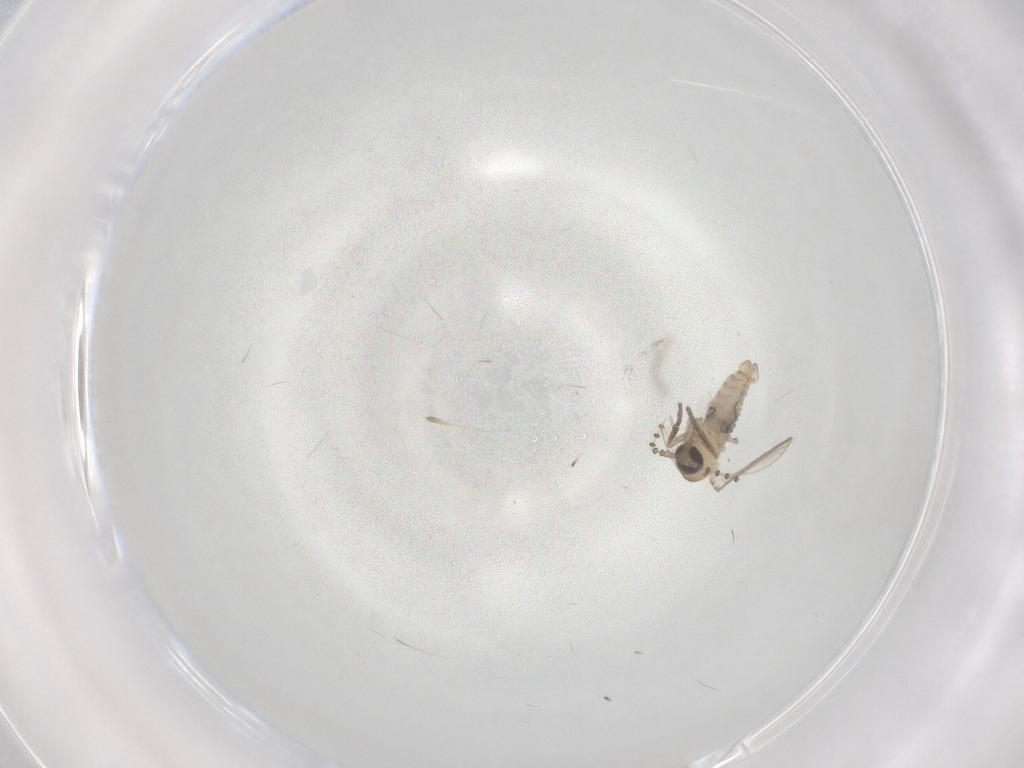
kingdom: Animalia
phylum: Arthropoda
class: Insecta
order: Diptera
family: Psychodidae
